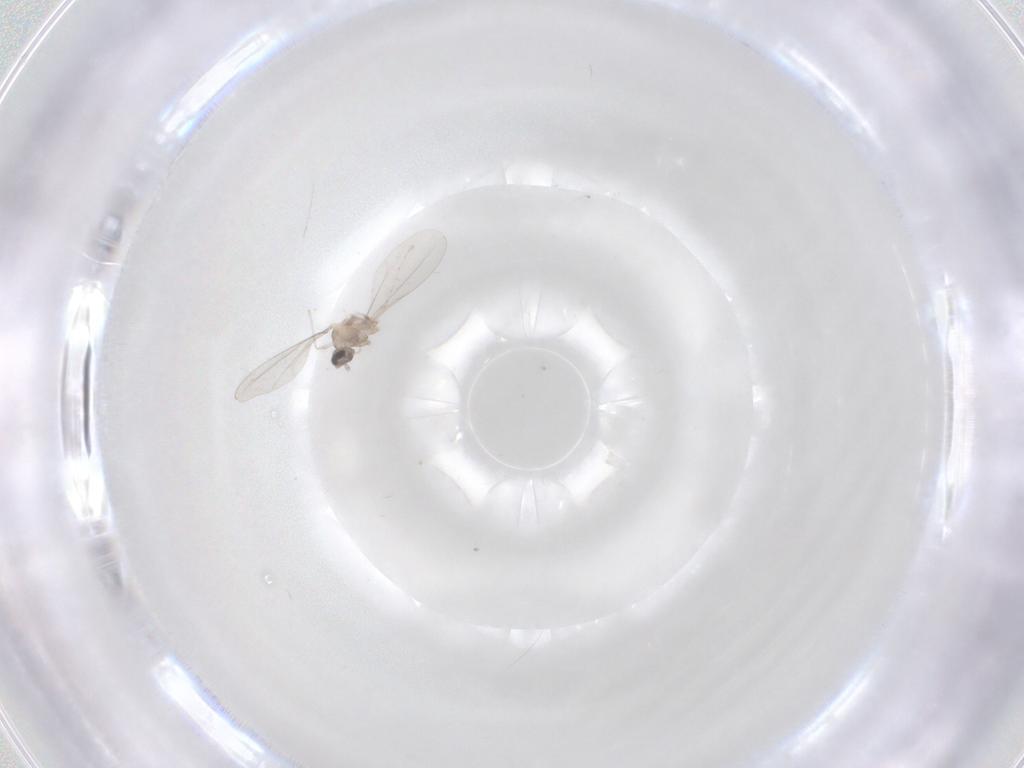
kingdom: Animalia
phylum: Arthropoda
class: Insecta
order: Diptera
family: Cecidomyiidae
